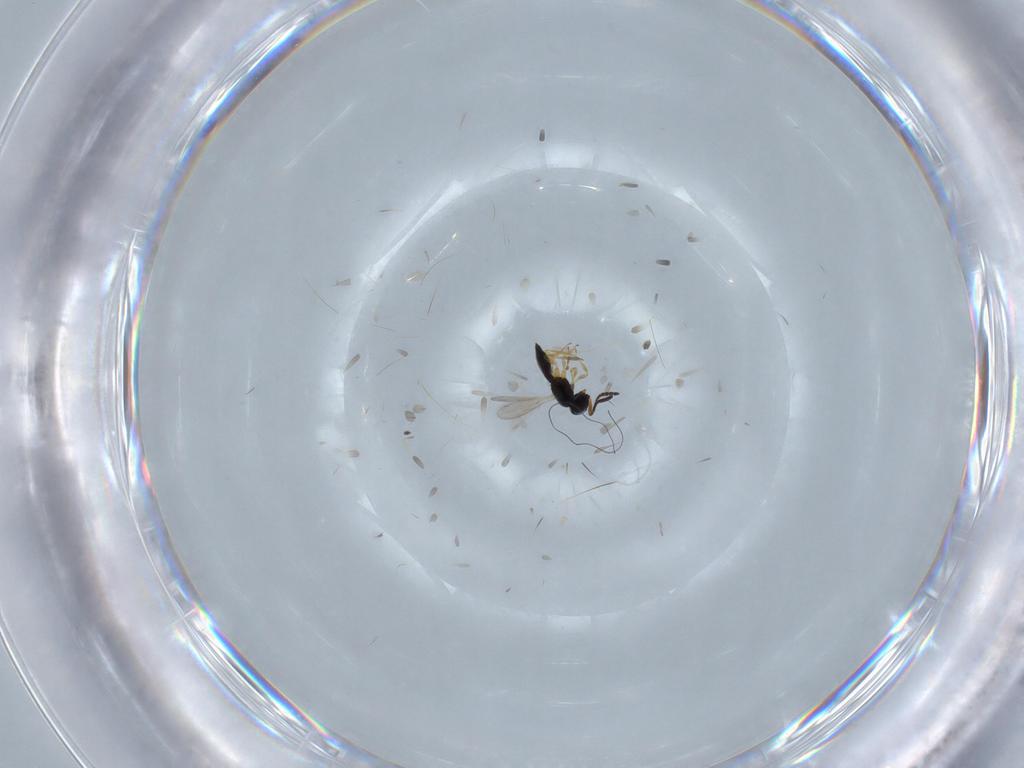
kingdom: Animalia
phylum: Arthropoda
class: Insecta
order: Hymenoptera
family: Scelionidae
